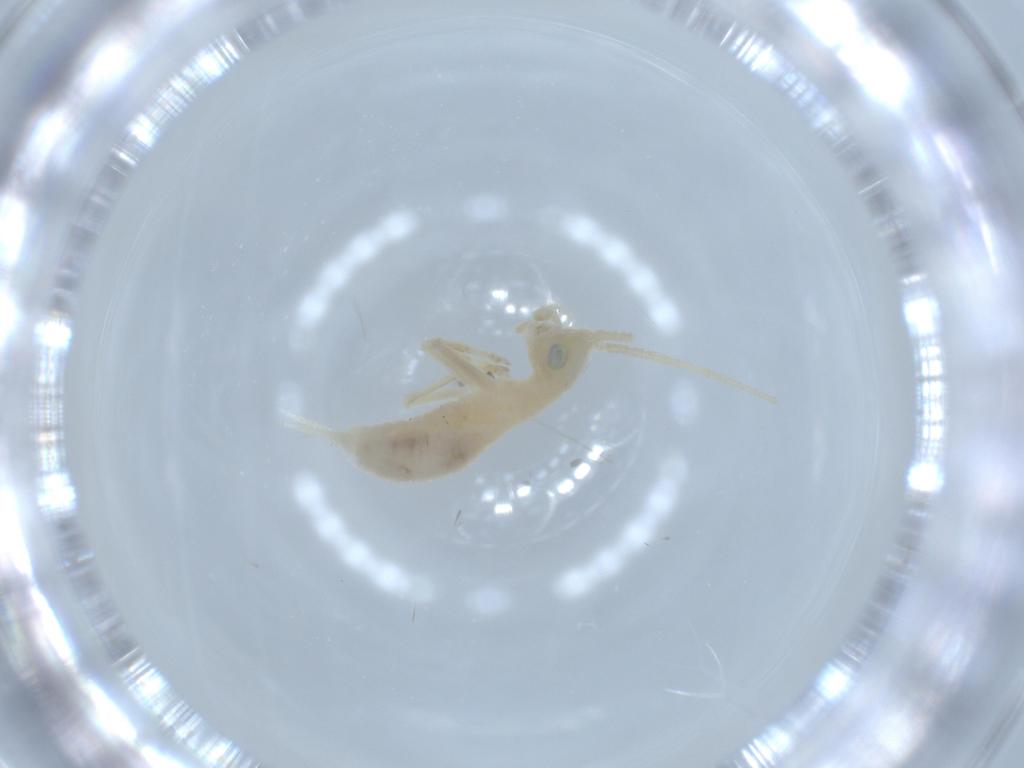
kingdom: Animalia
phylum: Arthropoda
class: Insecta
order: Orthoptera
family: Trigonidiidae
